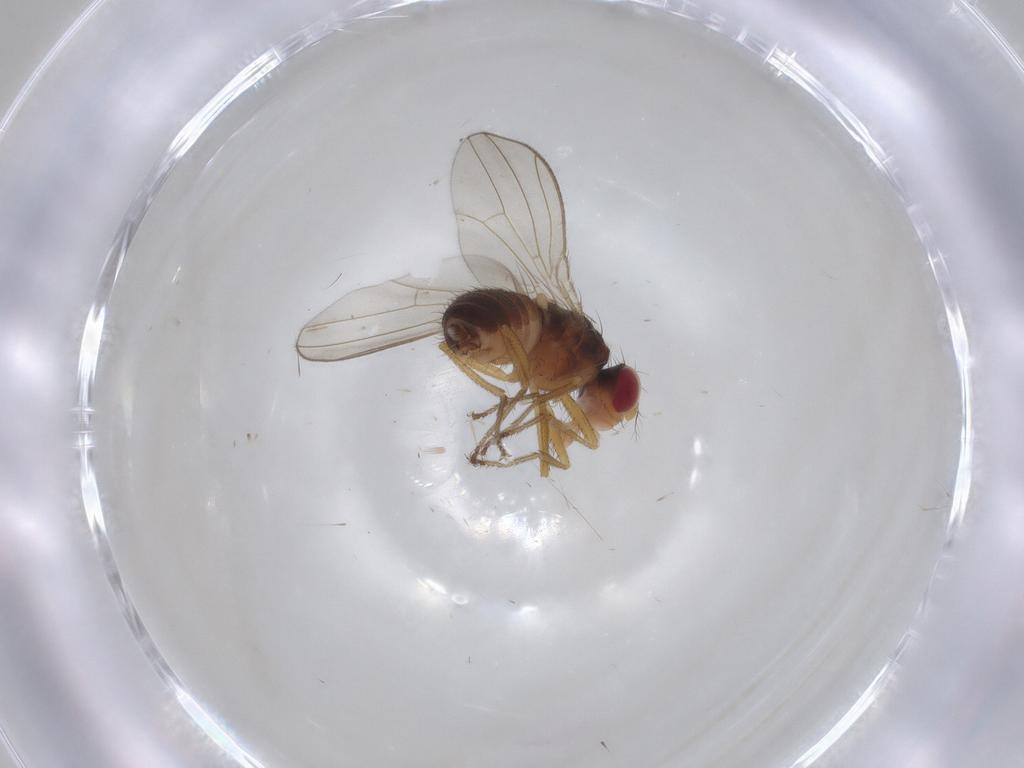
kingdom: Animalia
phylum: Arthropoda
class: Insecta
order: Diptera
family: Drosophilidae
